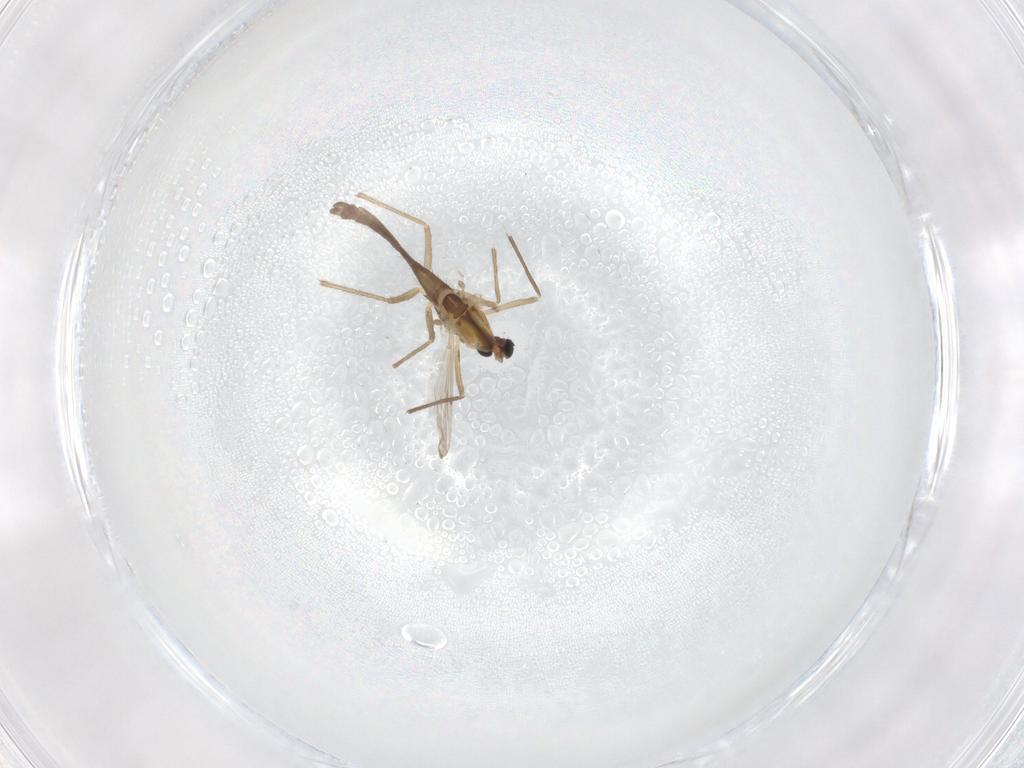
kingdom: Animalia
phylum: Arthropoda
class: Insecta
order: Diptera
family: Chironomidae
